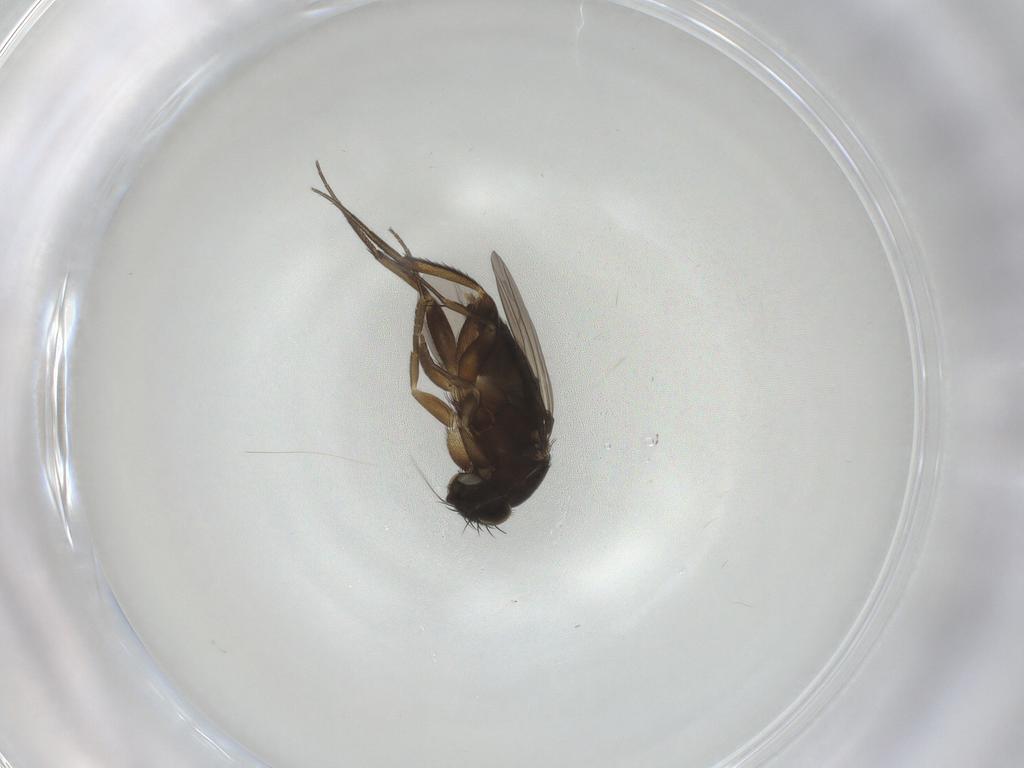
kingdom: Animalia
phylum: Arthropoda
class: Insecta
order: Diptera
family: Phoridae
